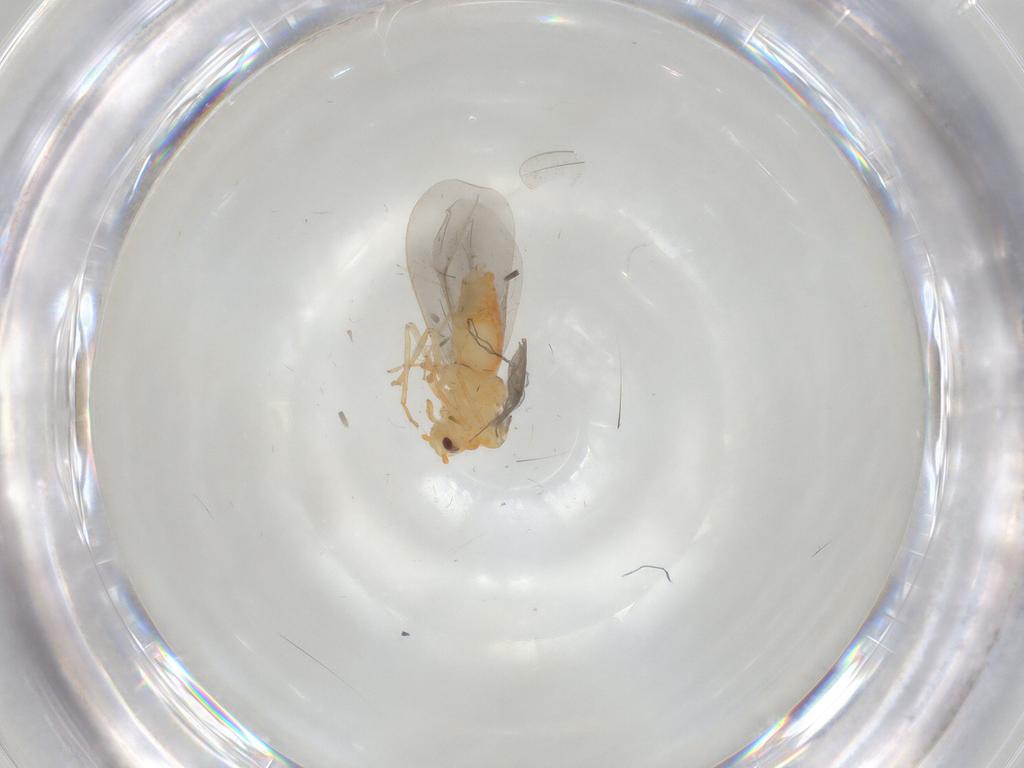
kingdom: Animalia
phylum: Arthropoda
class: Insecta
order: Hemiptera
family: Aleyrodidae
